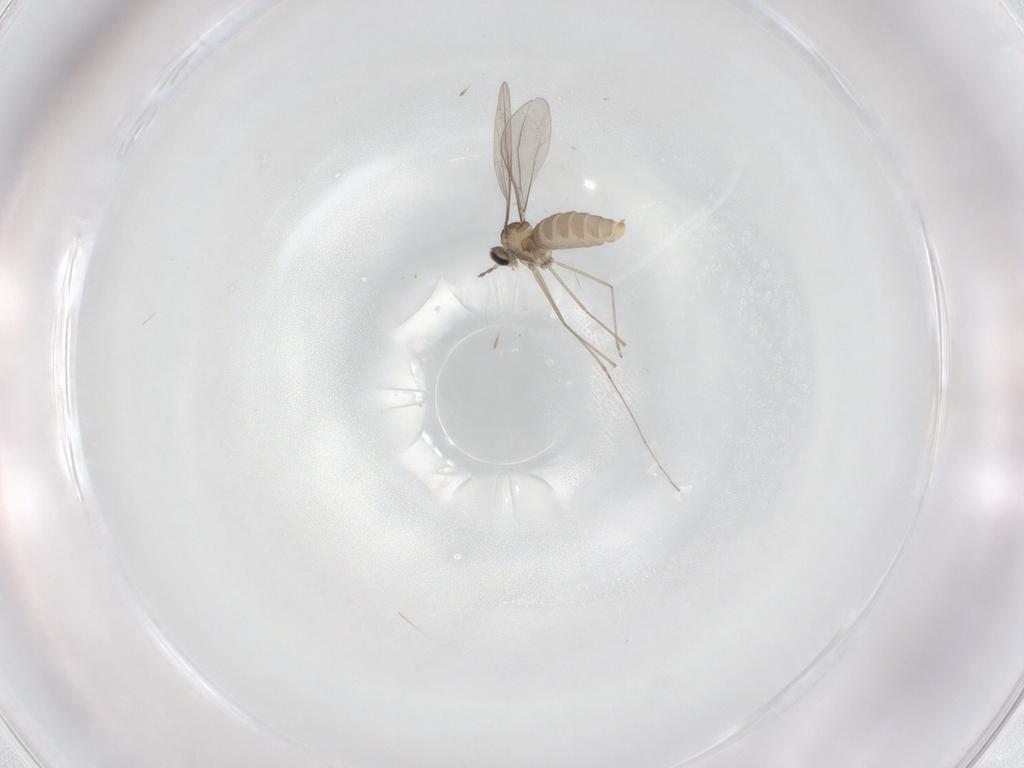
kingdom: Animalia
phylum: Arthropoda
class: Insecta
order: Diptera
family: Cecidomyiidae
